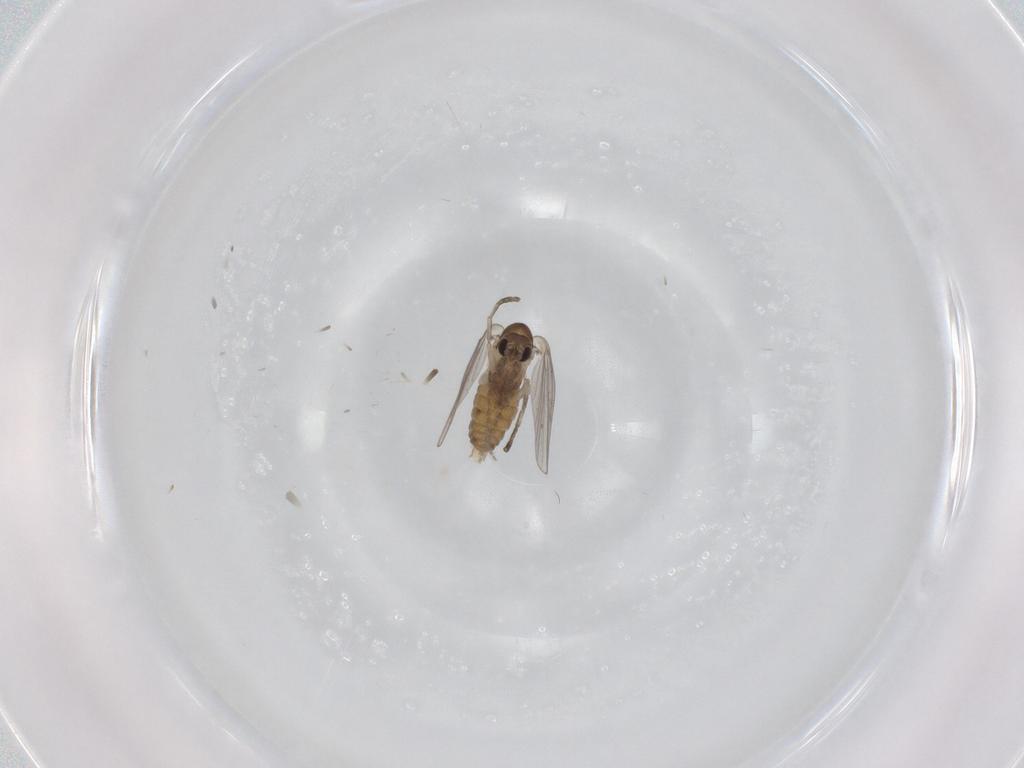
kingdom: Animalia
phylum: Arthropoda
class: Insecta
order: Diptera
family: Psychodidae
